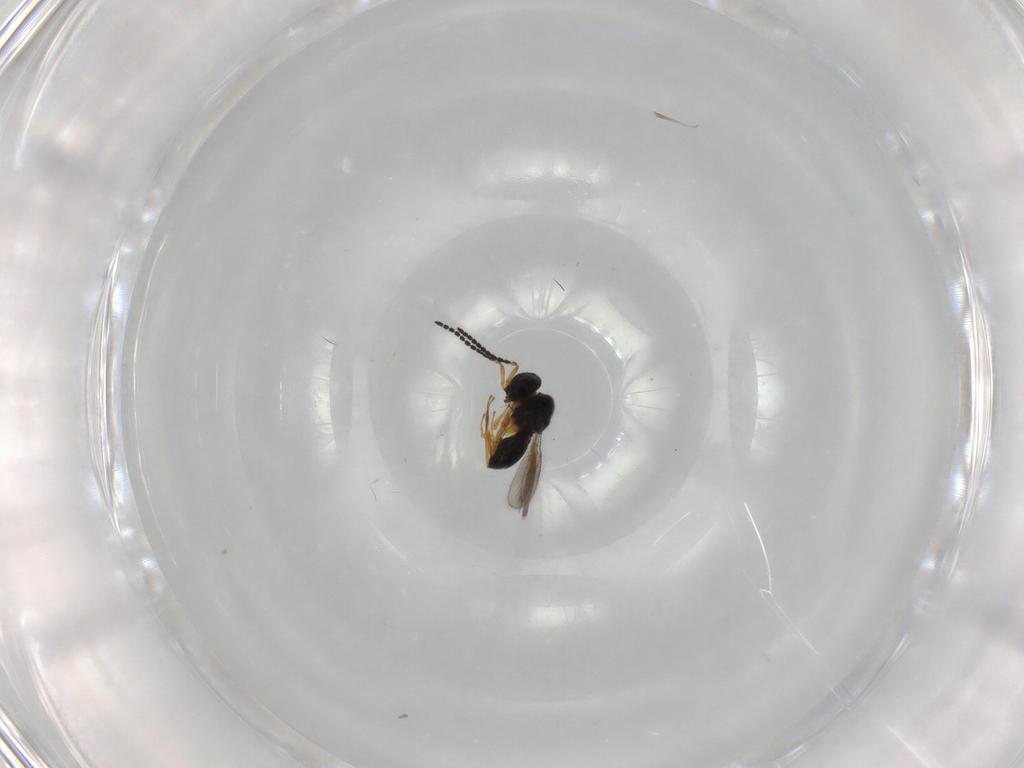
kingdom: Animalia
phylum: Arthropoda
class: Insecta
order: Hymenoptera
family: Scelionidae
